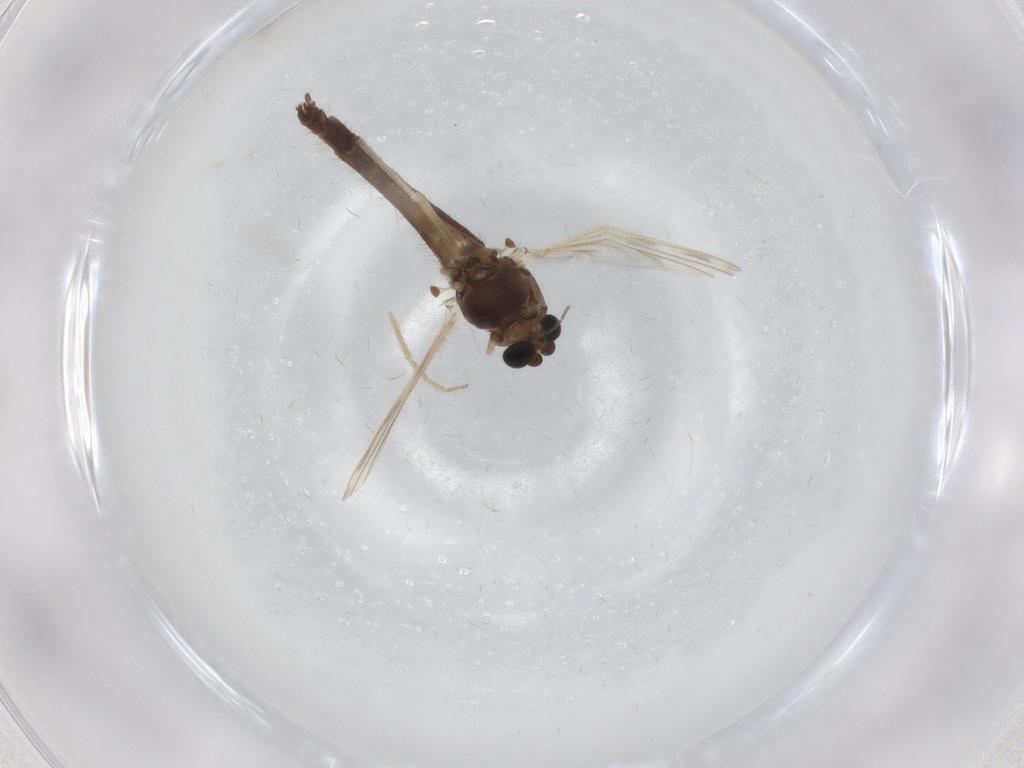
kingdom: Animalia
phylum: Arthropoda
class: Insecta
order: Diptera
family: Chironomidae
